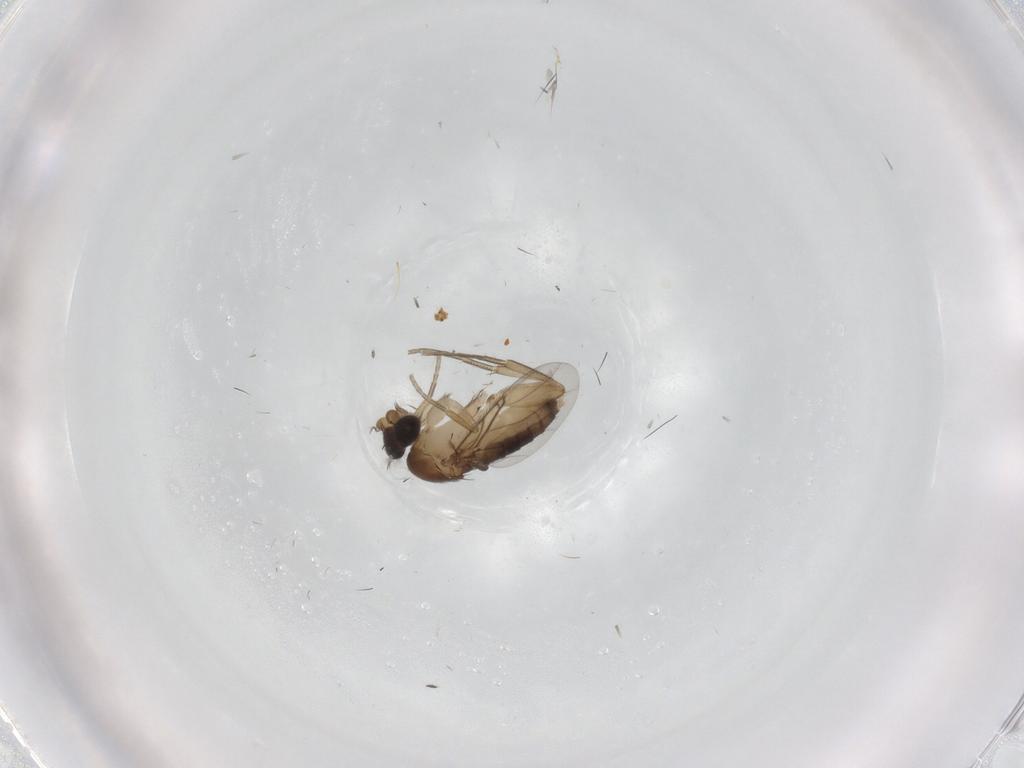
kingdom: Animalia
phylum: Arthropoda
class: Insecta
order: Diptera
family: Phoridae
